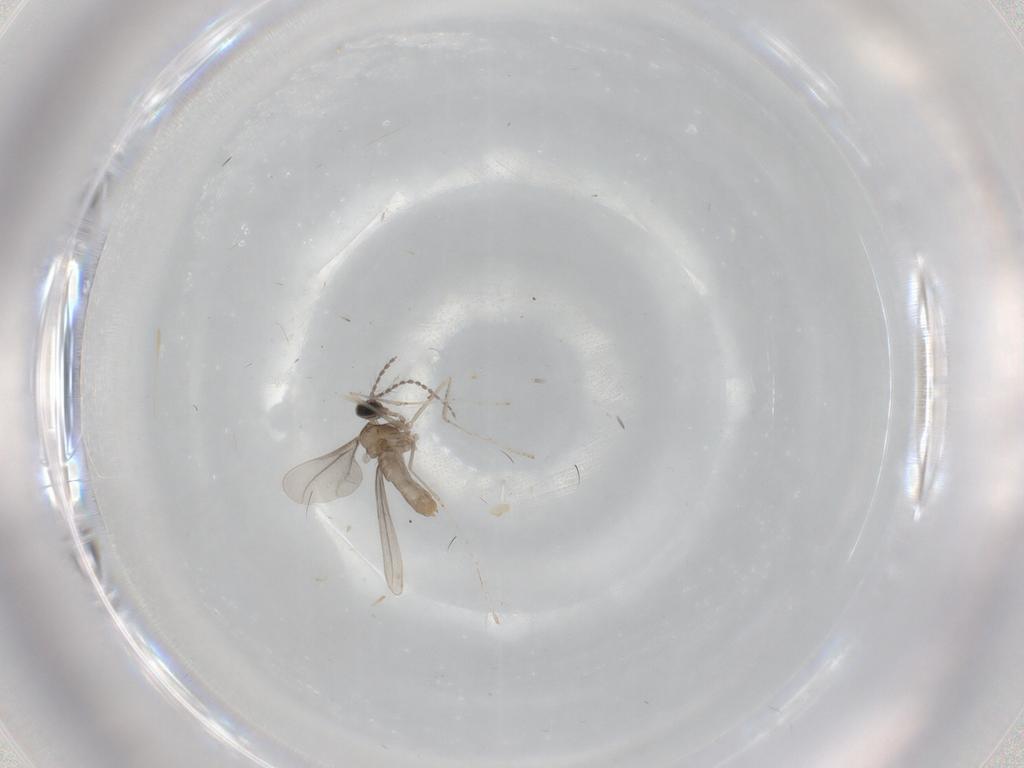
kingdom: Animalia
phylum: Arthropoda
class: Insecta
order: Diptera
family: Cecidomyiidae
